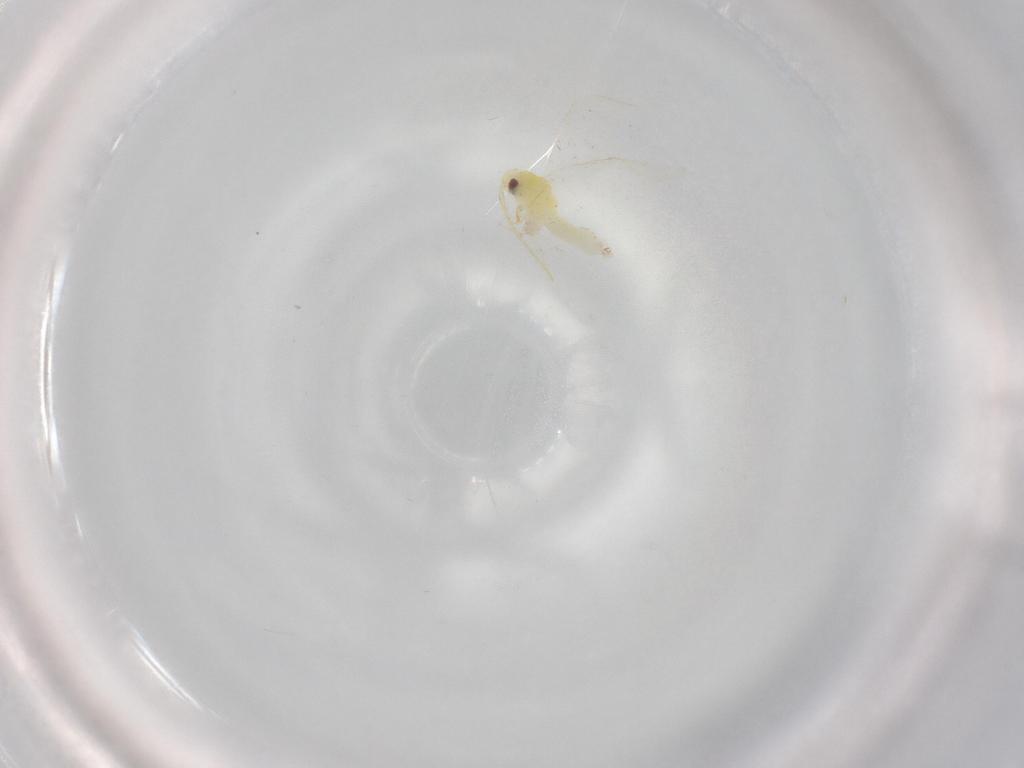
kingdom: Animalia
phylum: Arthropoda
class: Insecta
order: Hemiptera
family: Aleyrodidae
